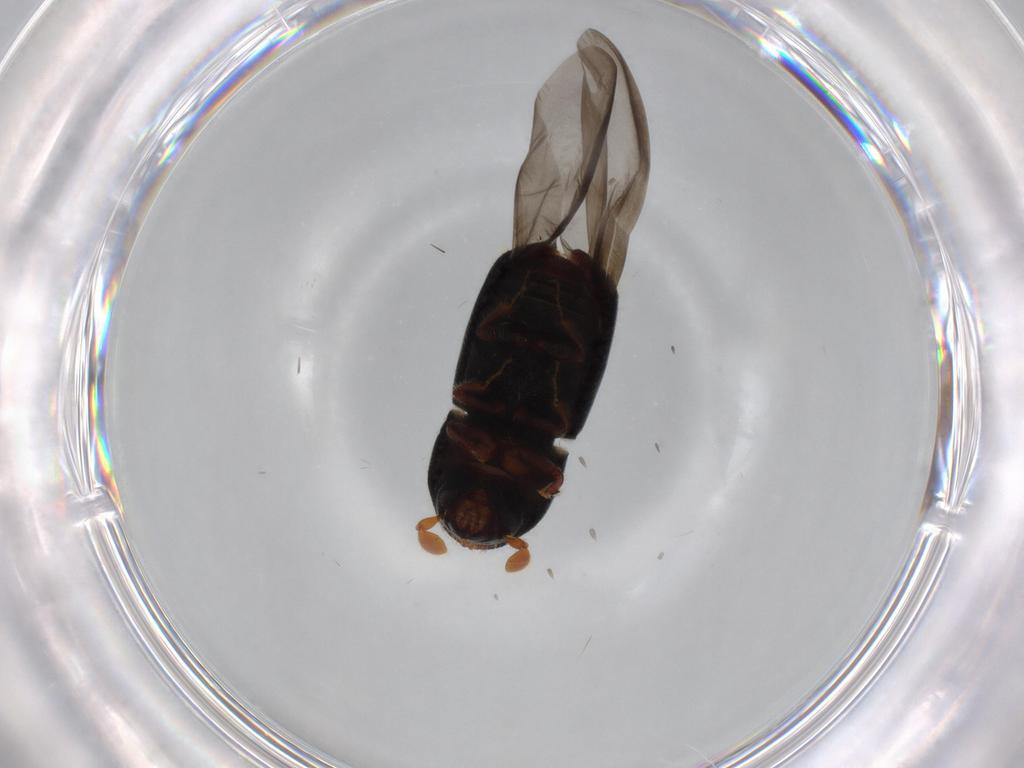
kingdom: Animalia
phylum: Arthropoda
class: Insecta
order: Coleoptera
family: Curculionidae
